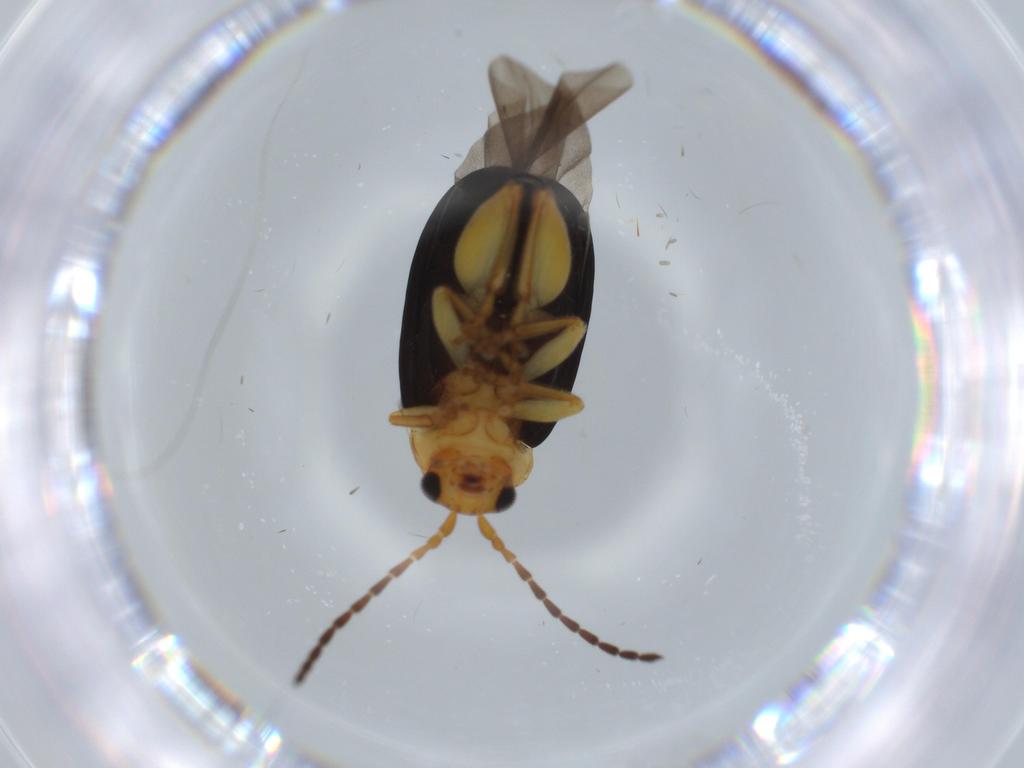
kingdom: Animalia
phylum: Arthropoda
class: Insecta
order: Coleoptera
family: Chrysomelidae
